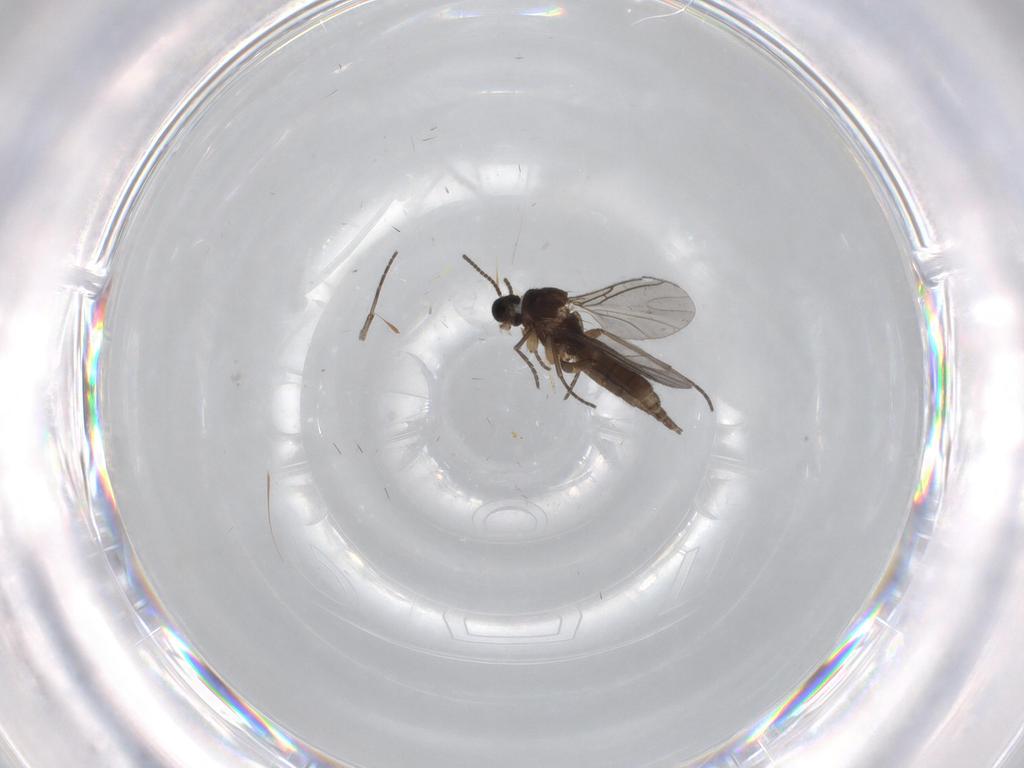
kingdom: Animalia
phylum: Arthropoda
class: Insecta
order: Diptera
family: Sciaridae
